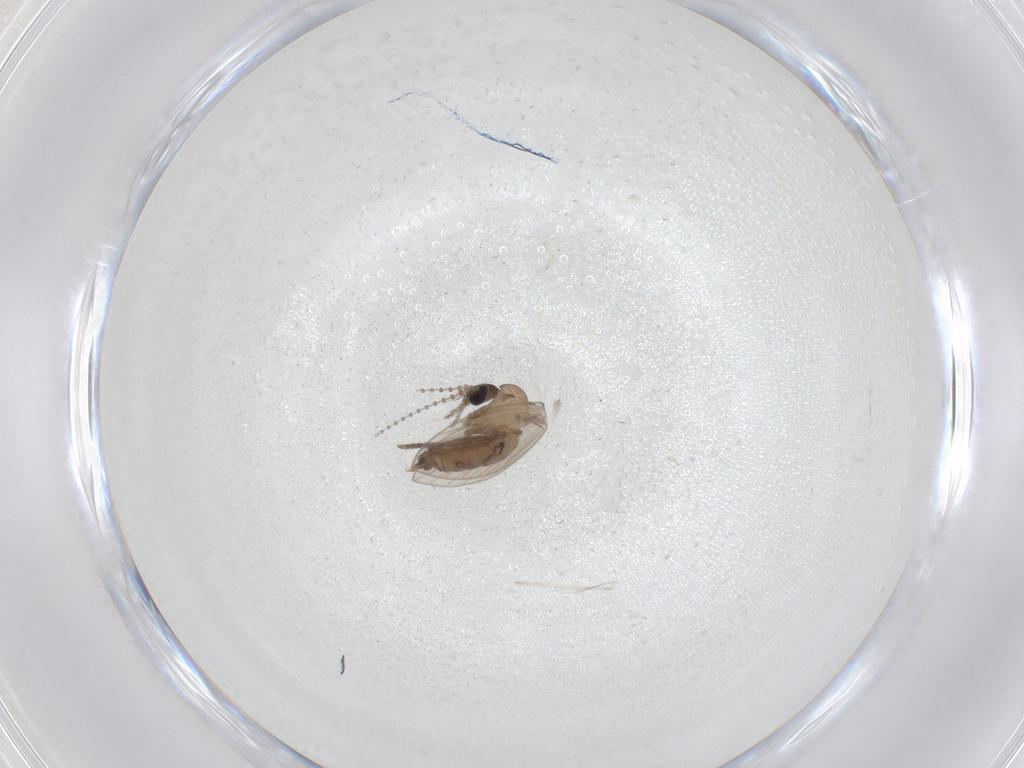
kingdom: Animalia
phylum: Arthropoda
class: Insecta
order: Diptera
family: Psychodidae
